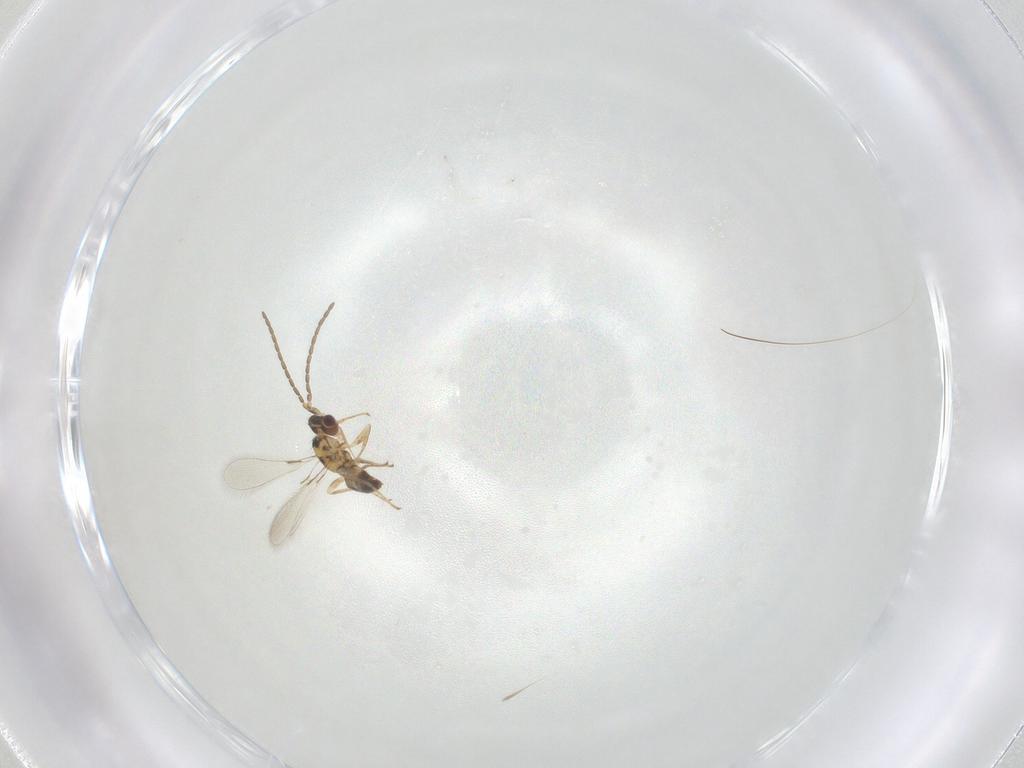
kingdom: Animalia
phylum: Arthropoda
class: Insecta
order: Hymenoptera
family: Mymaridae
